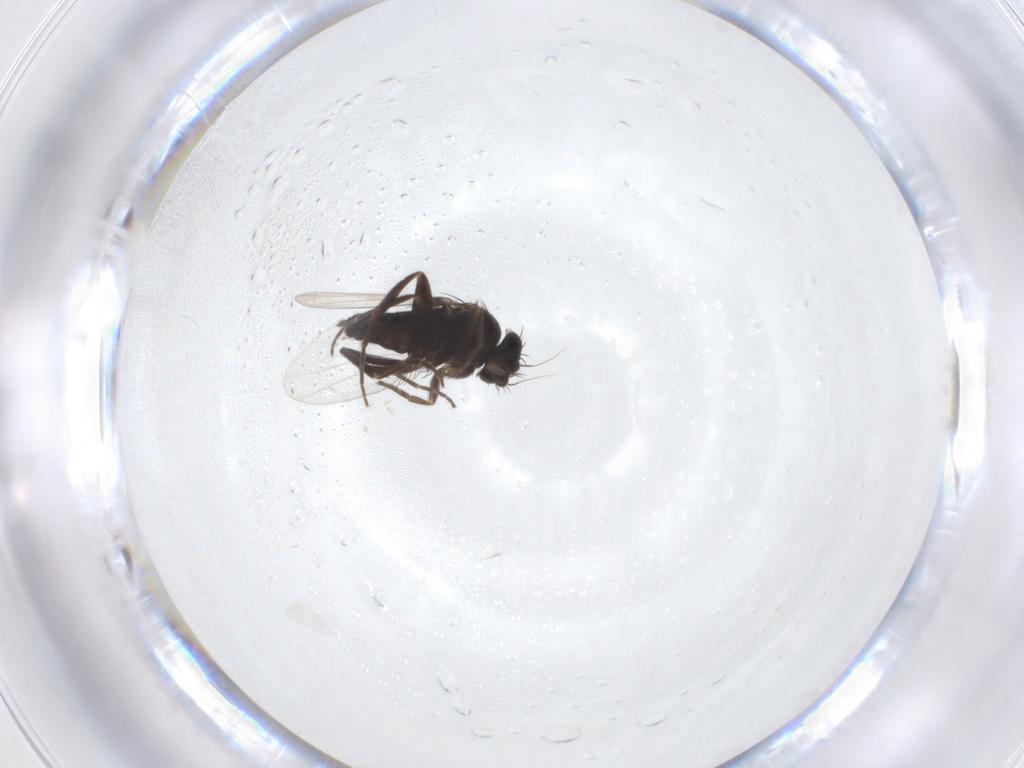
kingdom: Animalia
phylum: Arthropoda
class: Insecta
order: Diptera
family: Phoridae
